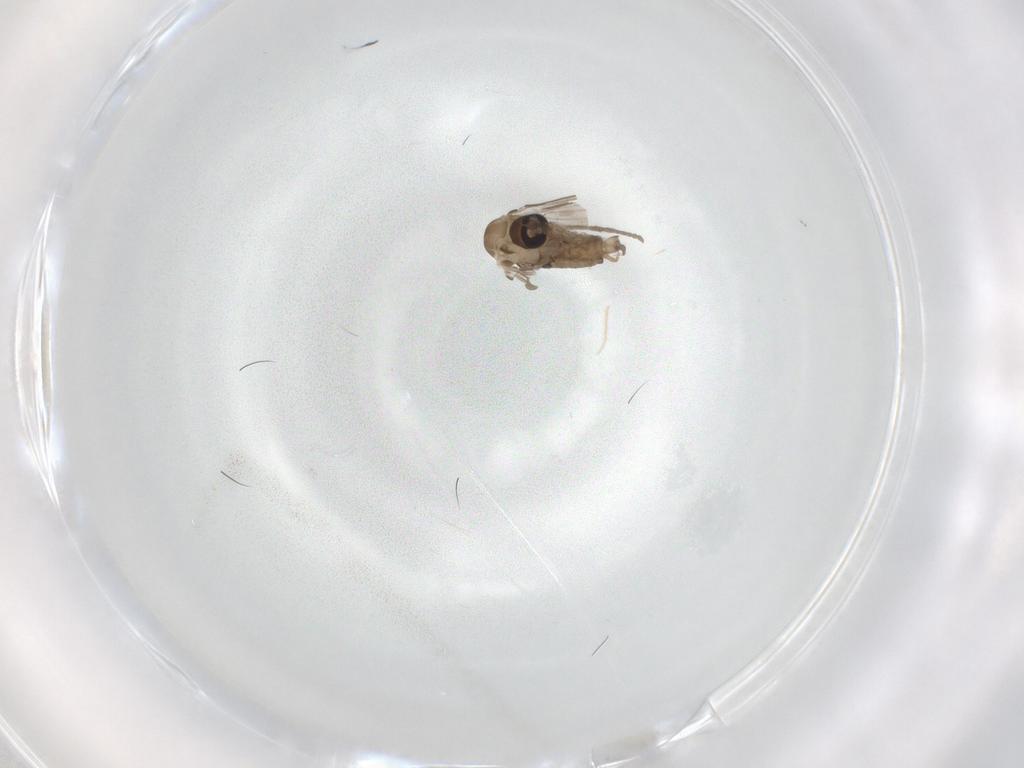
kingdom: Animalia
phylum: Arthropoda
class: Insecta
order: Diptera
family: Psychodidae
